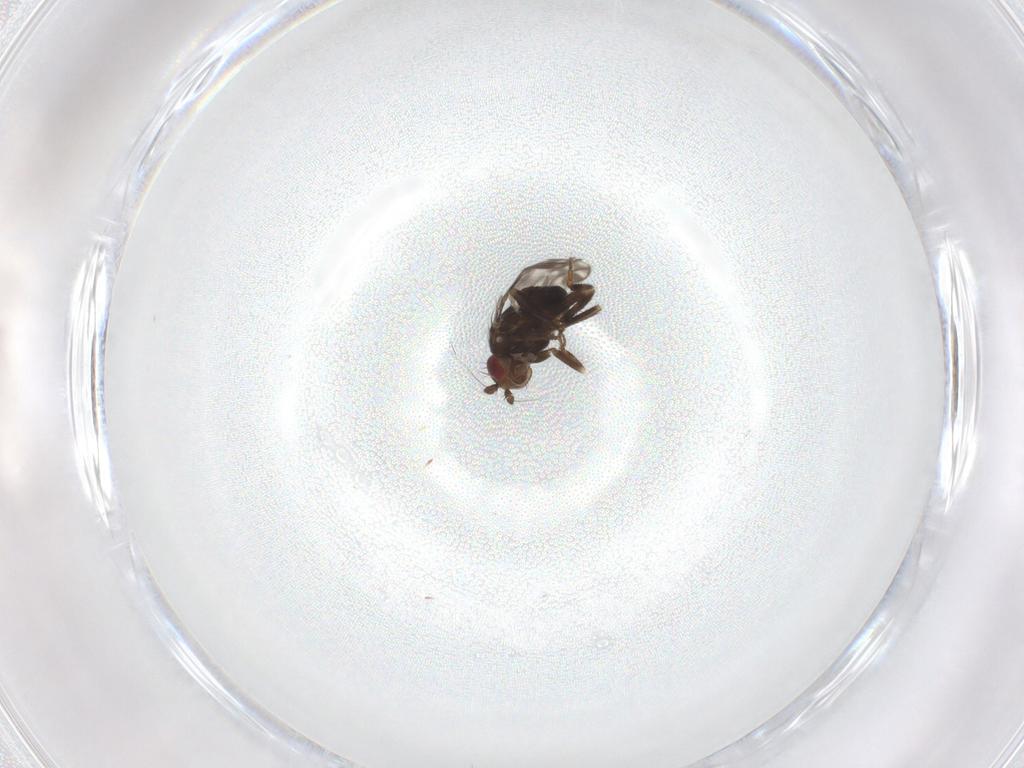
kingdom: Animalia
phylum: Arthropoda
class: Insecta
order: Diptera
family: Sphaeroceridae
